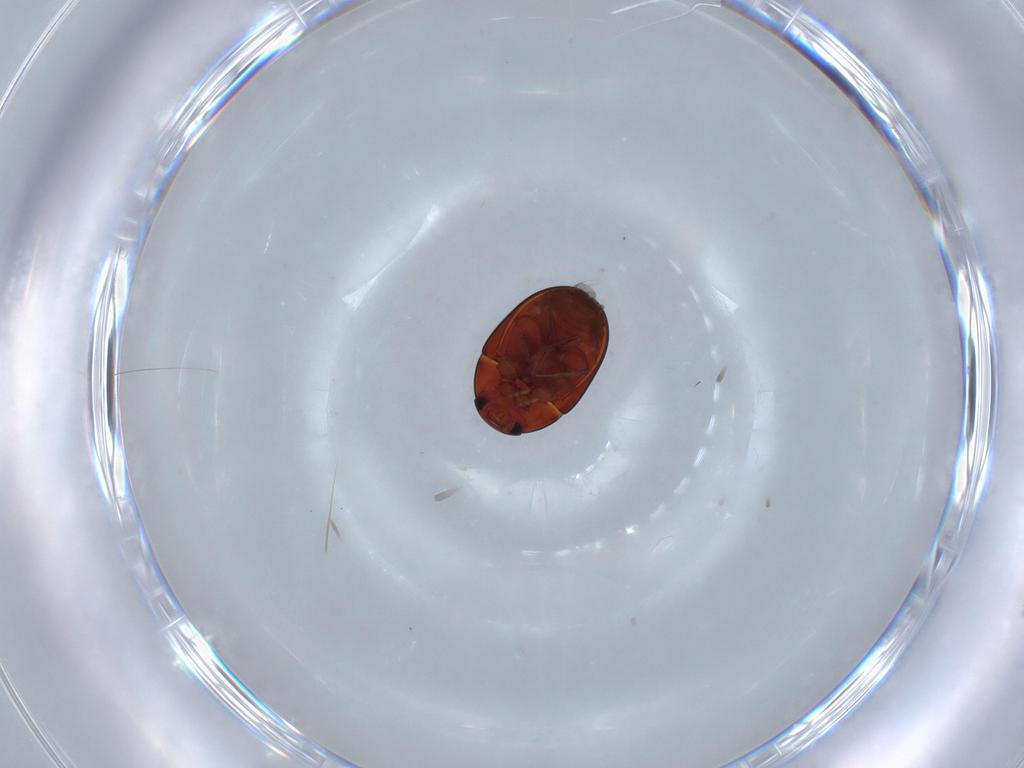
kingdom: Animalia
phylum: Arthropoda
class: Insecta
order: Coleoptera
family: Phalacridae
